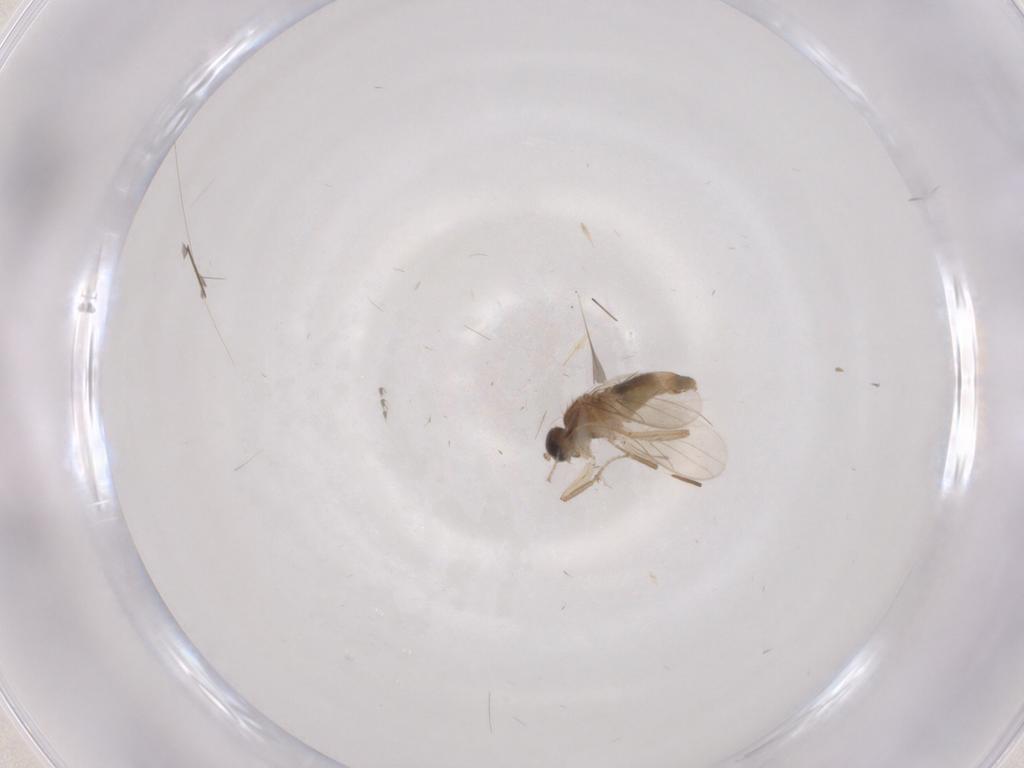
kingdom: Animalia
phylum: Arthropoda
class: Insecta
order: Diptera
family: Hybotidae
